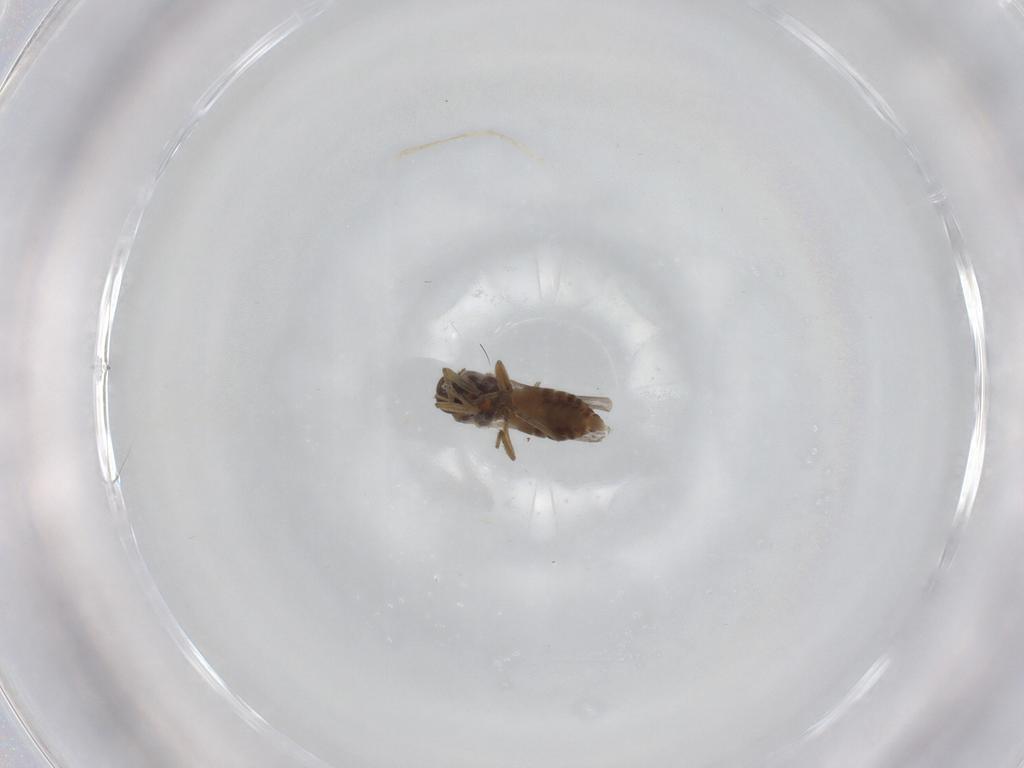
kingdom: Animalia
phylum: Arthropoda
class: Insecta
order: Diptera
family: Phoridae
